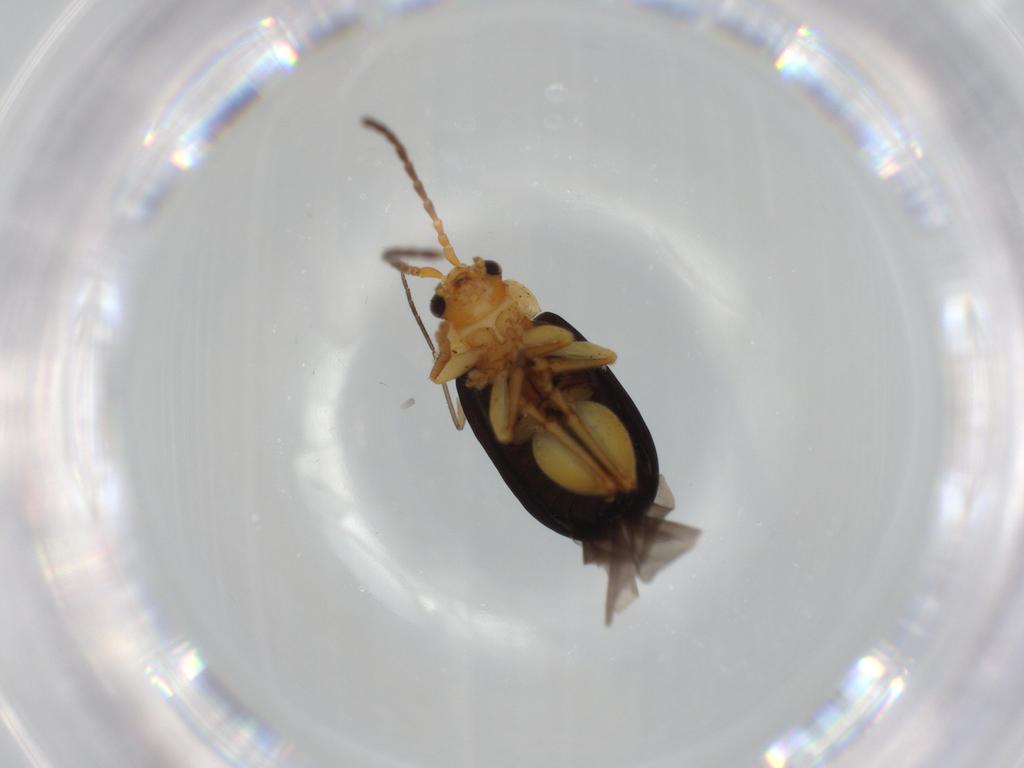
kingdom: Animalia
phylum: Arthropoda
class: Insecta
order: Coleoptera
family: Chrysomelidae
